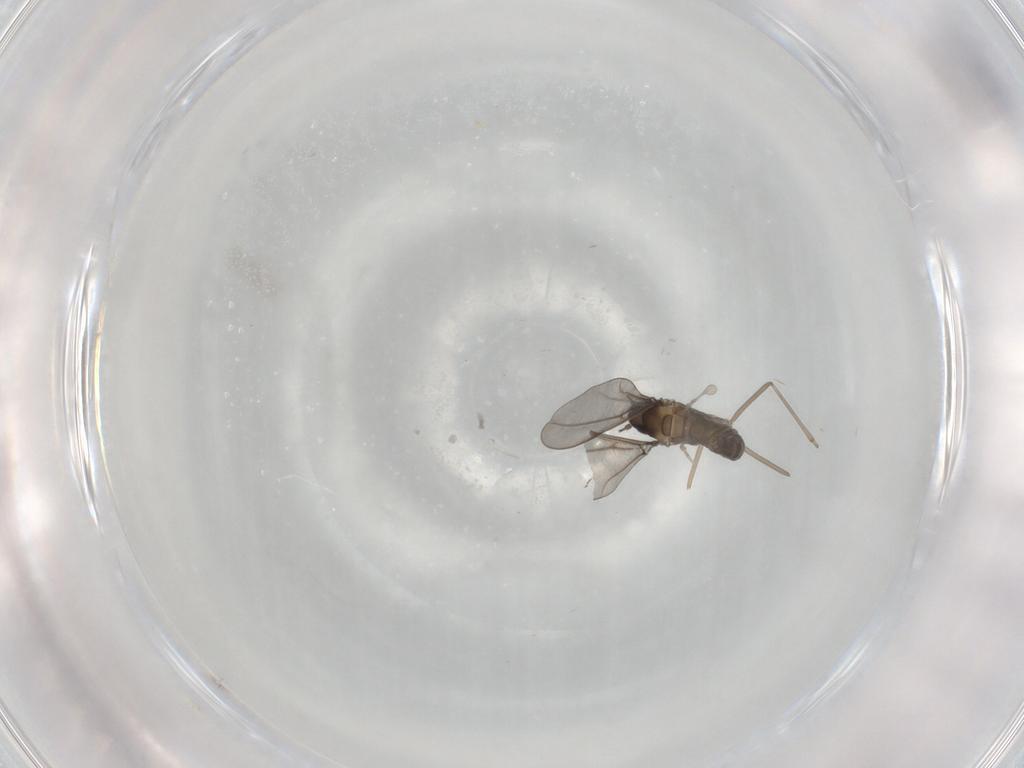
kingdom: Animalia
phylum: Arthropoda
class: Insecta
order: Diptera
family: Cecidomyiidae
